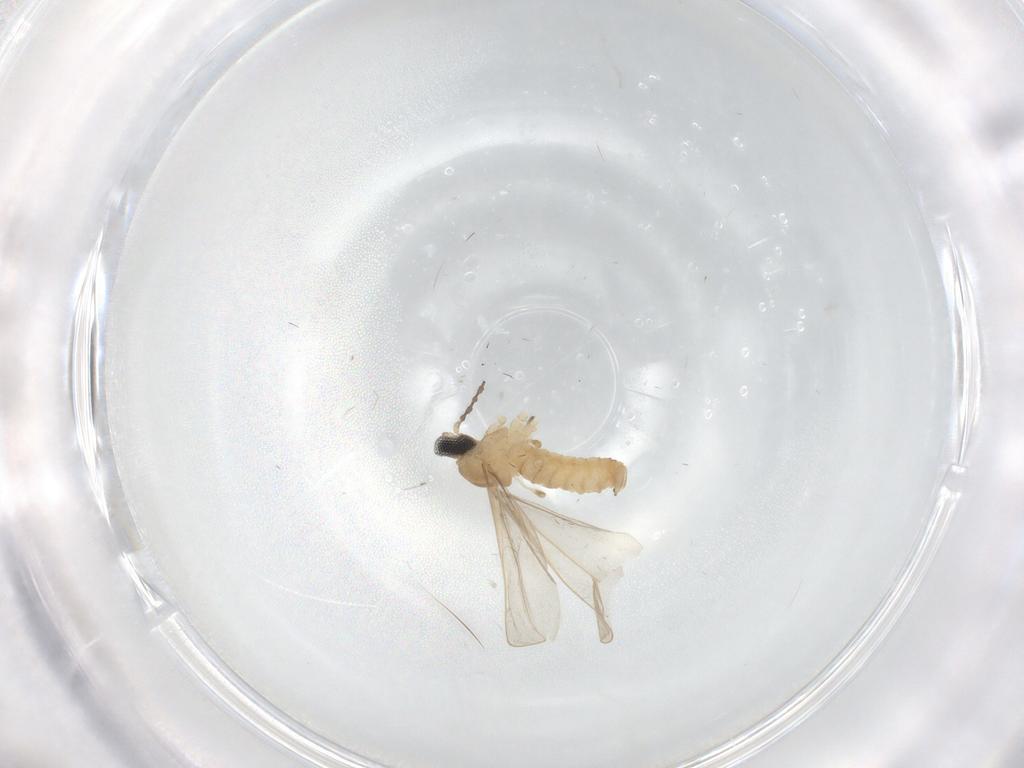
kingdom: Animalia
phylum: Arthropoda
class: Insecta
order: Diptera
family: Cecidomyiidae
